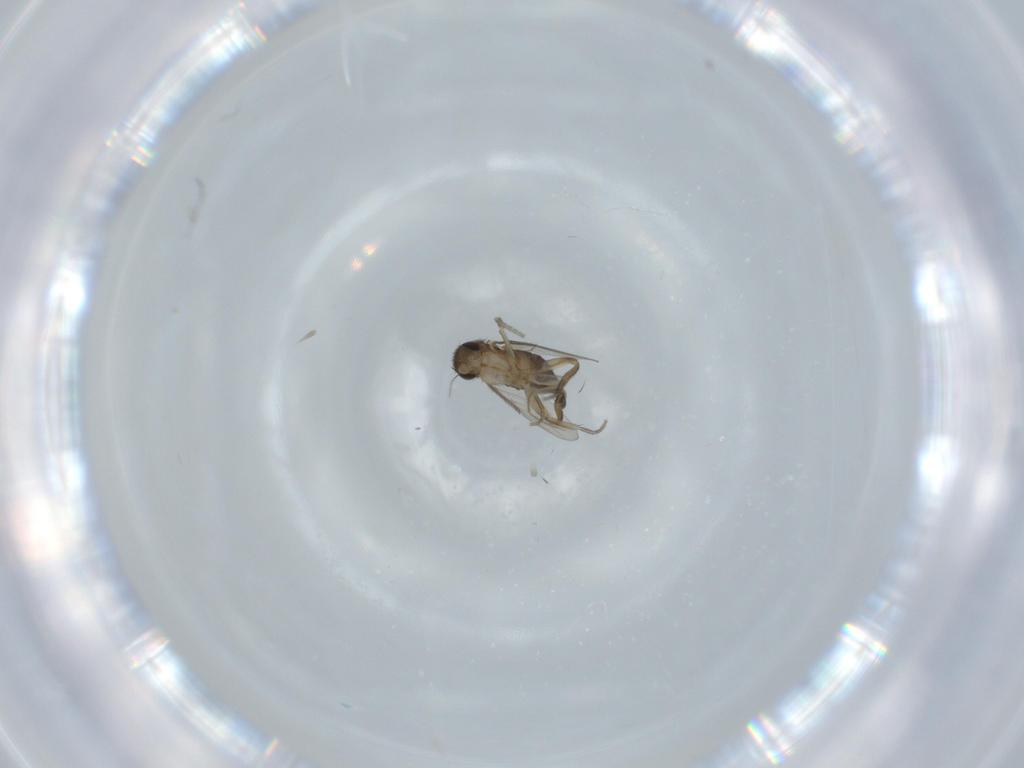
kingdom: Animalia
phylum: Arthropoda
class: Insecta
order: Diptera
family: Phoridae
